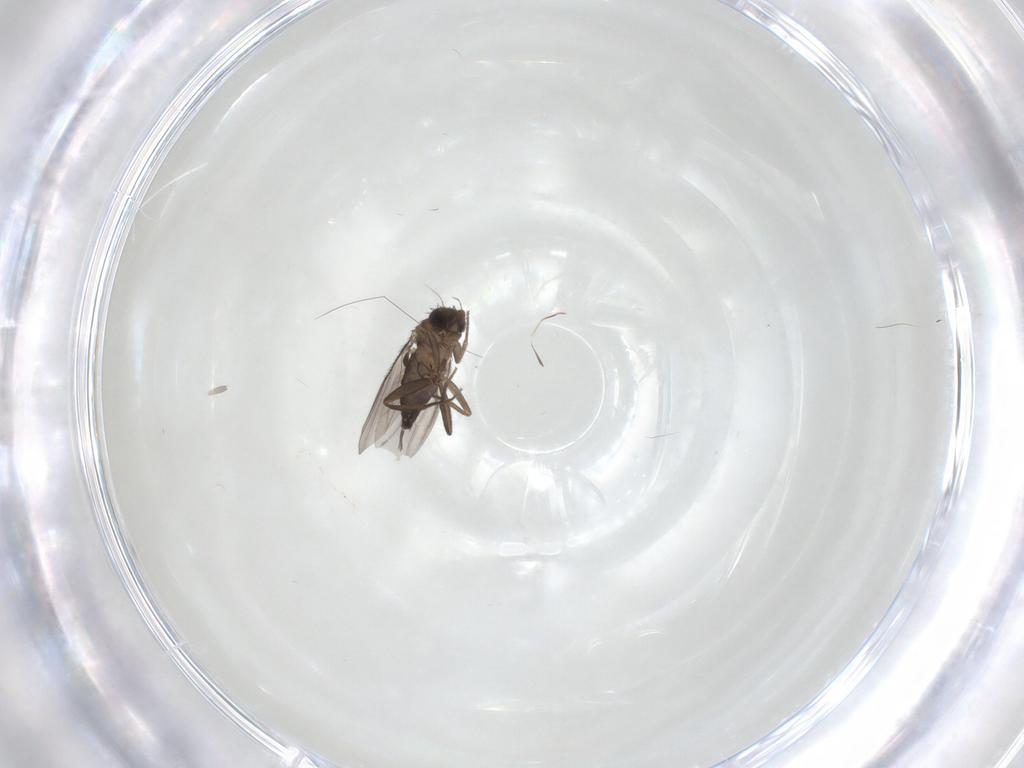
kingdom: Animalia
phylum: Arthropoda
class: Insecta
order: Diptera
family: Phoridae
